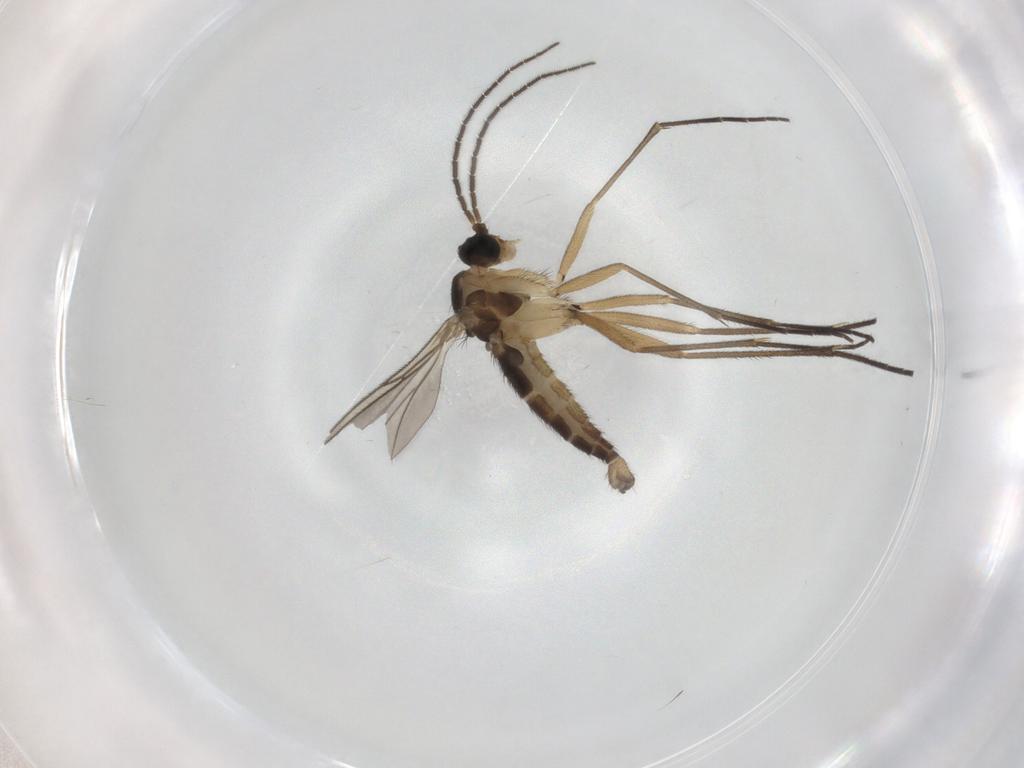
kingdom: Animalia
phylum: Arthropoda
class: Insecta
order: Diptera
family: Sciaridae
